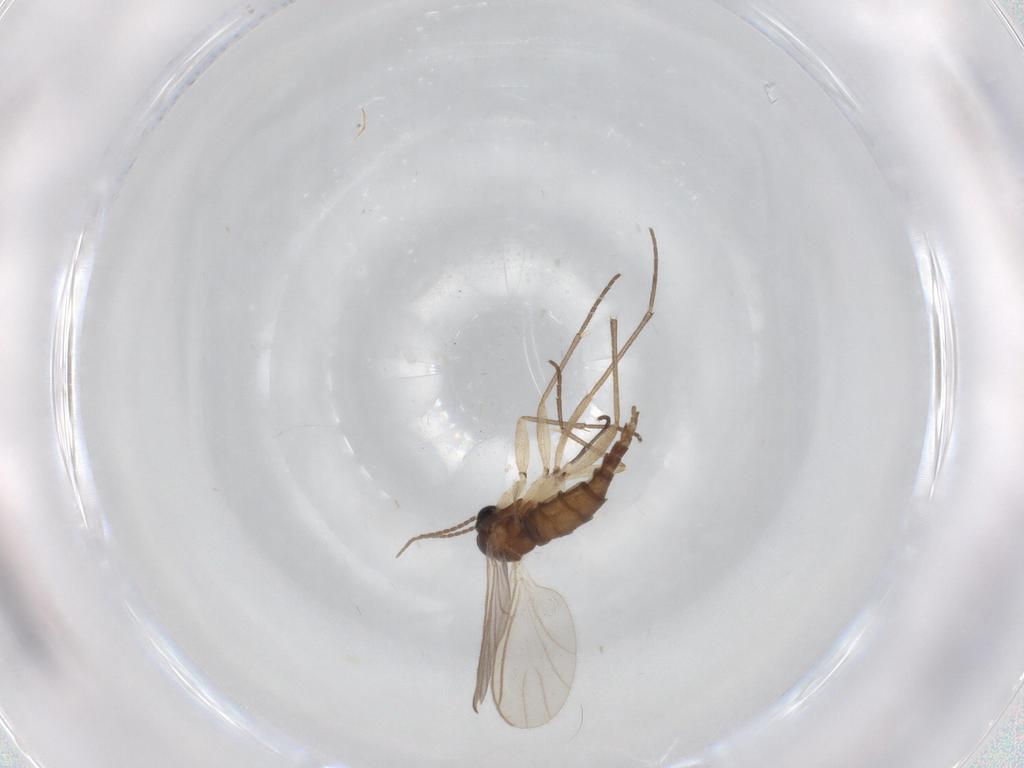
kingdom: Animalia
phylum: Arthropoda
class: Insecta
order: Diptera
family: Sciaridae
